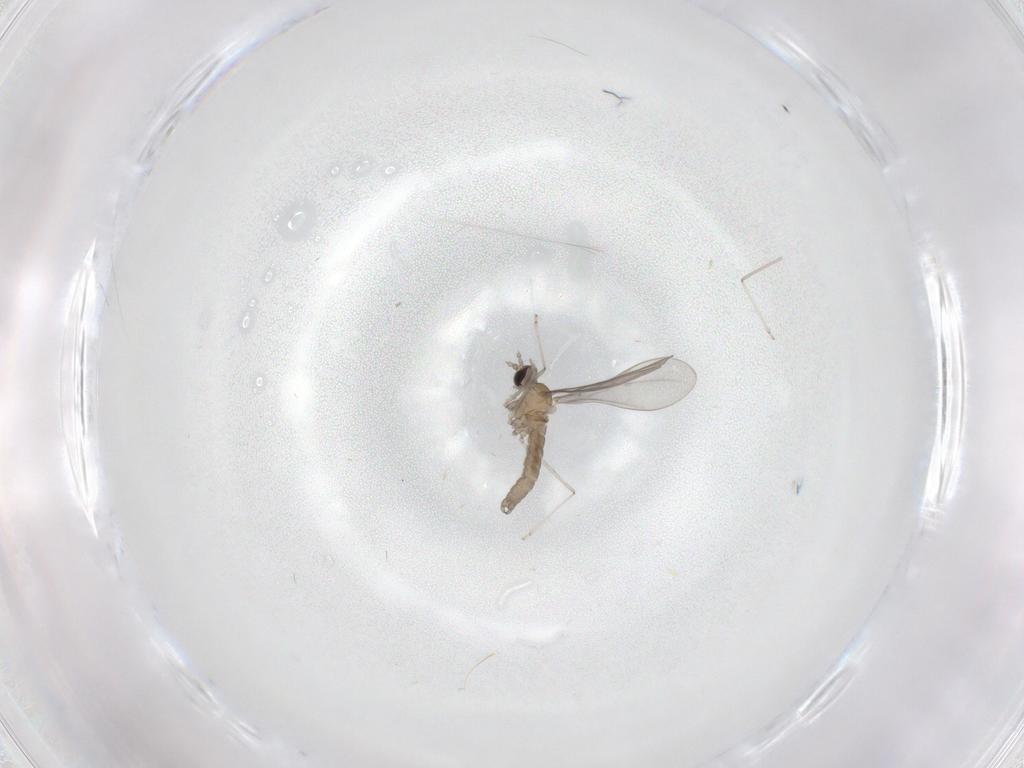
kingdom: Animalia
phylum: Arthropoda
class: Insecta
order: Diptera
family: Cecidomyiidae
